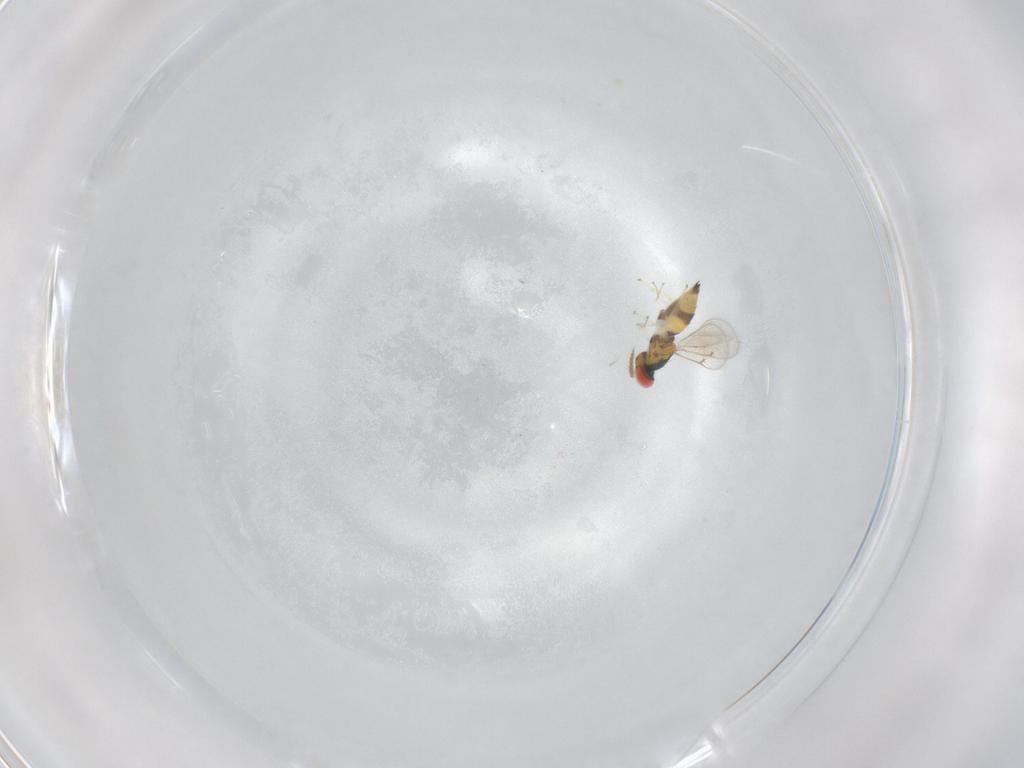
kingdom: Animalia
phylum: Arthropoda
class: Insecta
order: Hymenoptera
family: Eulophidae
